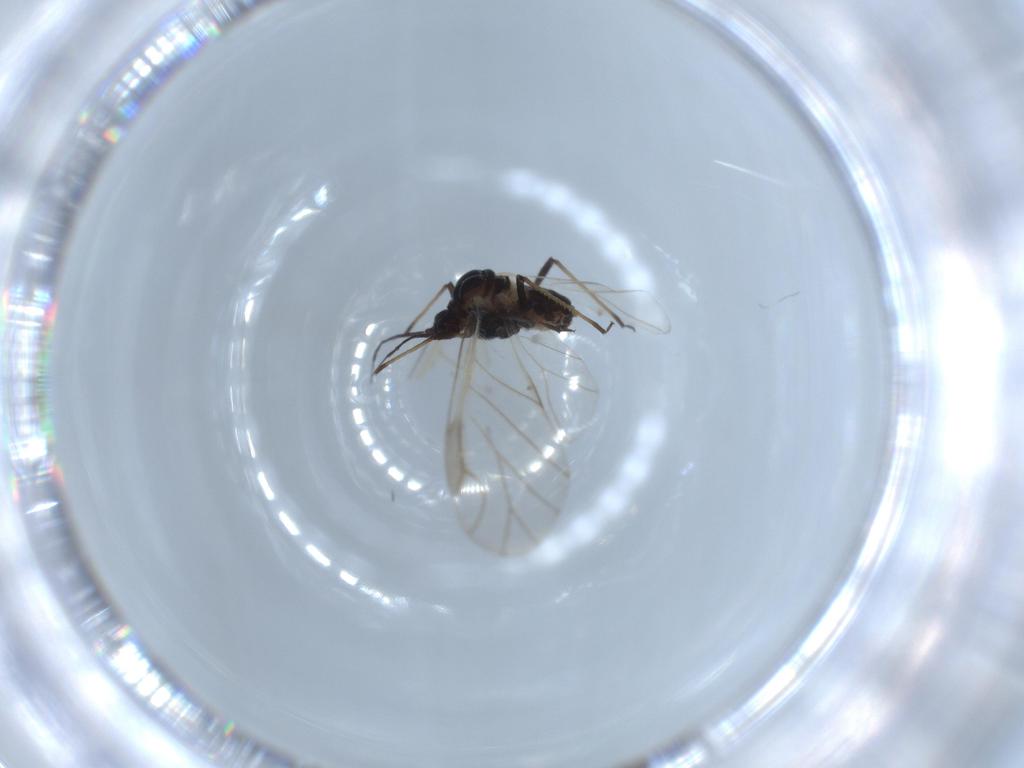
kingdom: Animalia
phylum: Arthropoda
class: Insecta
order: Hemiptera
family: Aphididae
